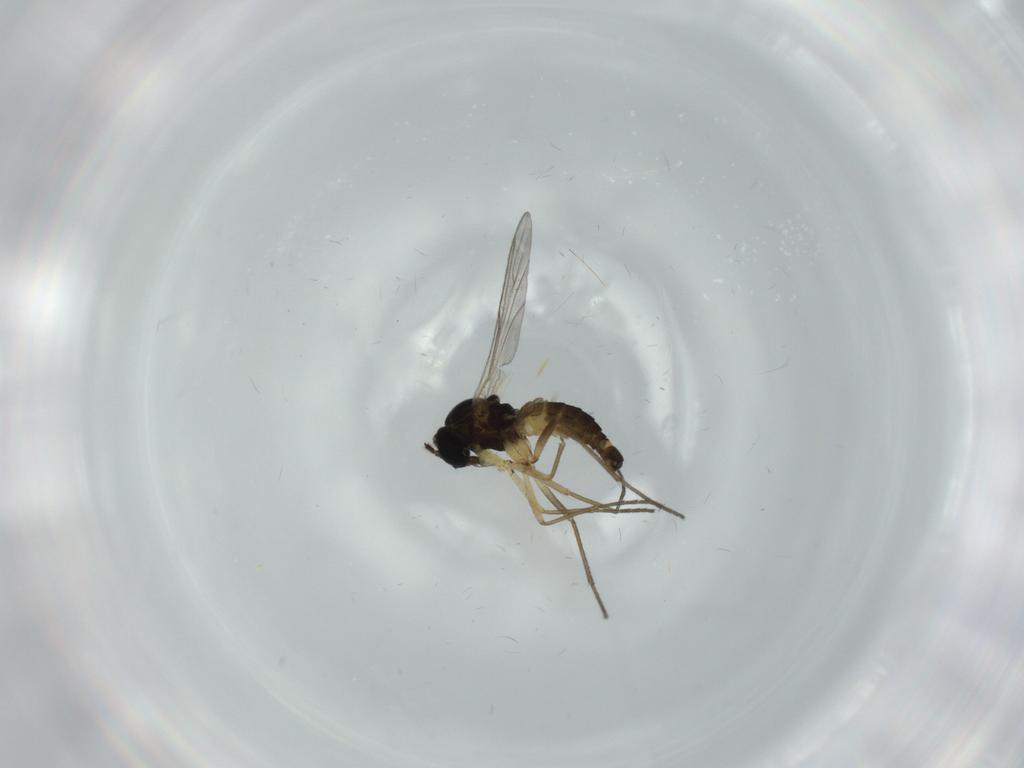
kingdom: Animalia
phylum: Arthropoda
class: Insecta
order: Diptera
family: Sciaridae
